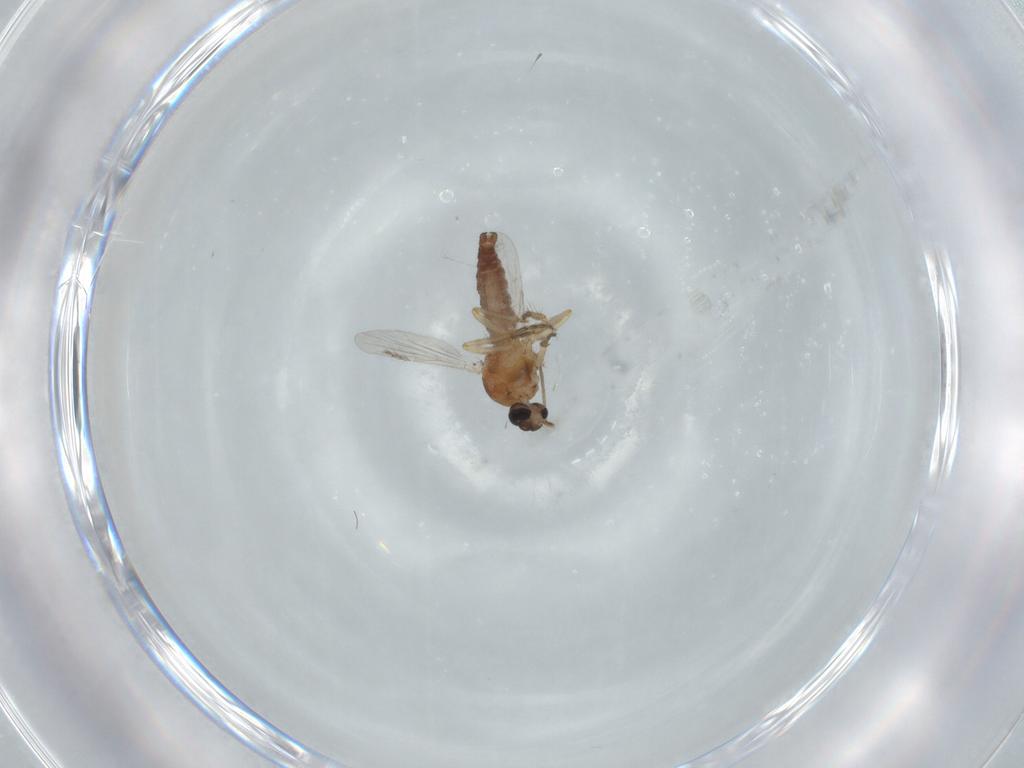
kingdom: Animalia
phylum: Arthropoda
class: Insecta
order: Diptera
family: Ceratopogonidae
